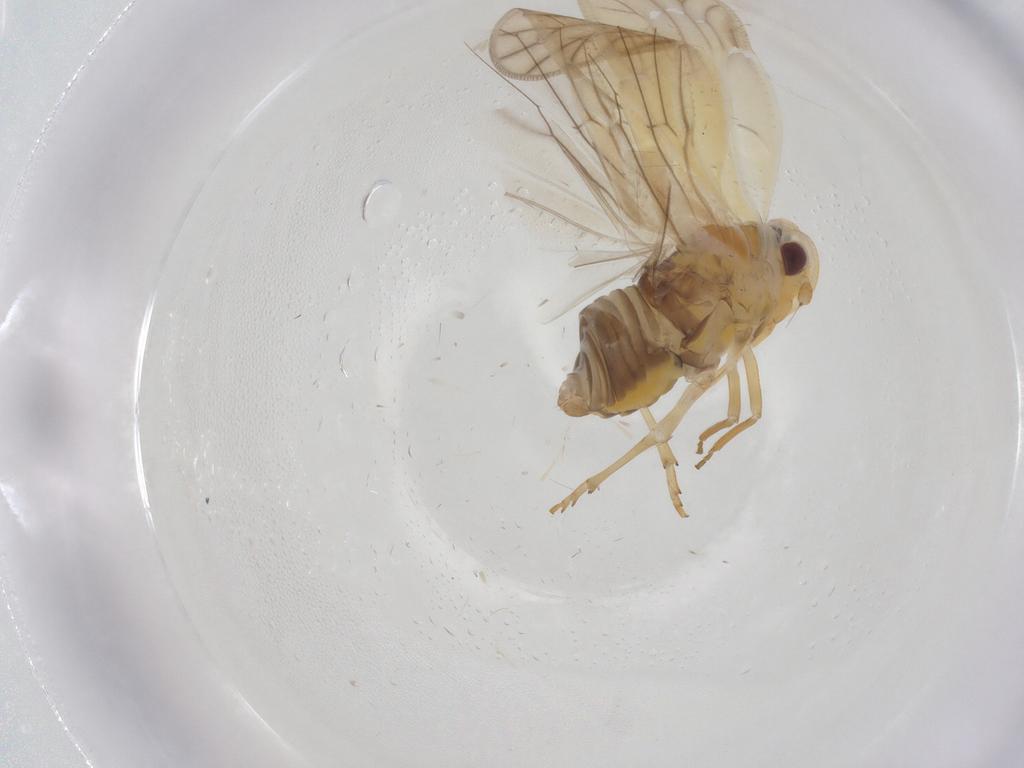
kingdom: Animalia
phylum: Arthropoda
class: Insecta
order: Hemiptera
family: Meenoplidae
